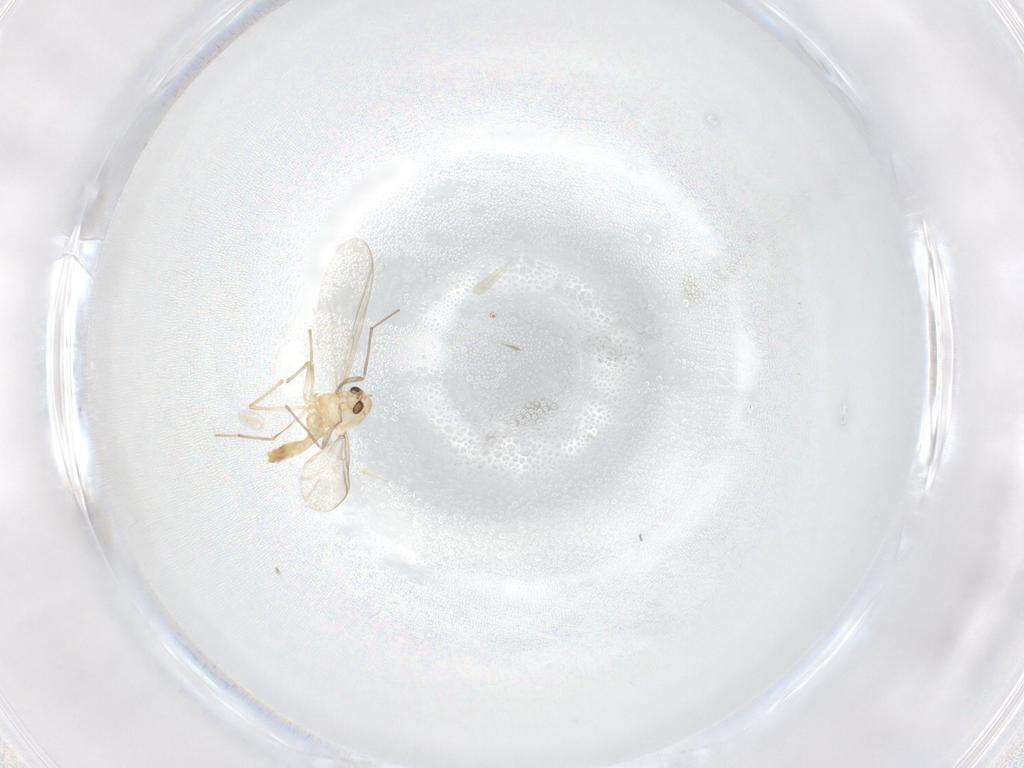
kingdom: Animalia
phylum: Arthropoda
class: Insecta
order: Diptera
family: Chironomidae
